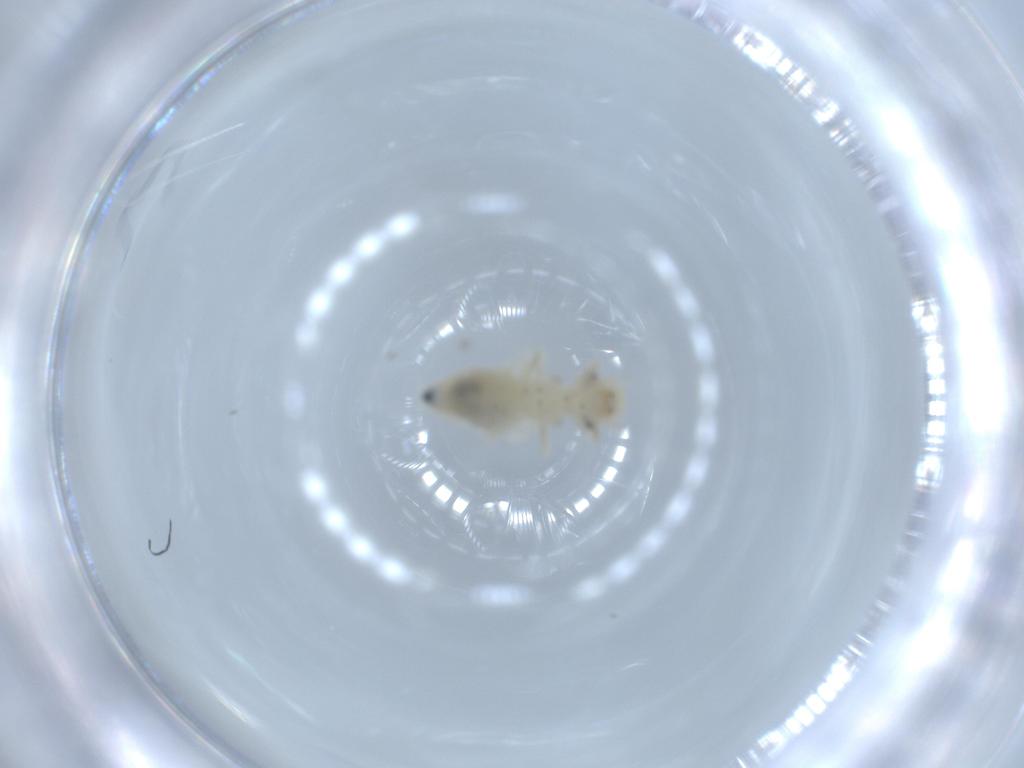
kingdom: Animalia
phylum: Arthropoda
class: Insecta
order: Psocodea
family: Caeciliusidae
